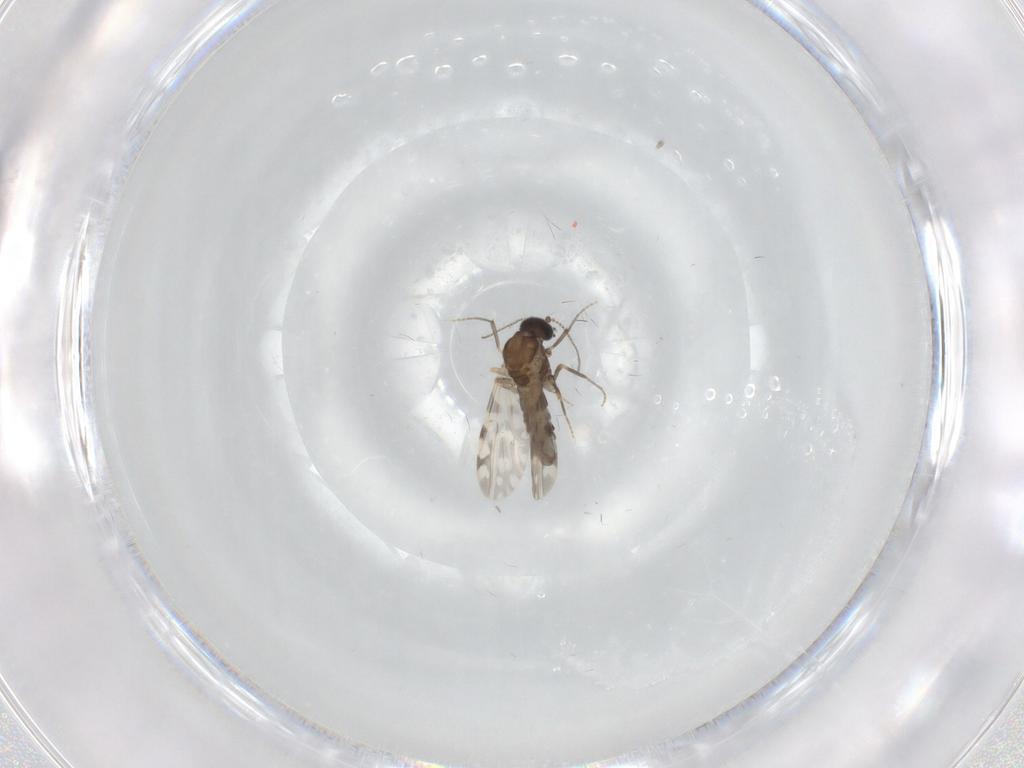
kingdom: Animalia
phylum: Arthropoda
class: Insecta
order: Diptera
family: Ceratopogonidae
